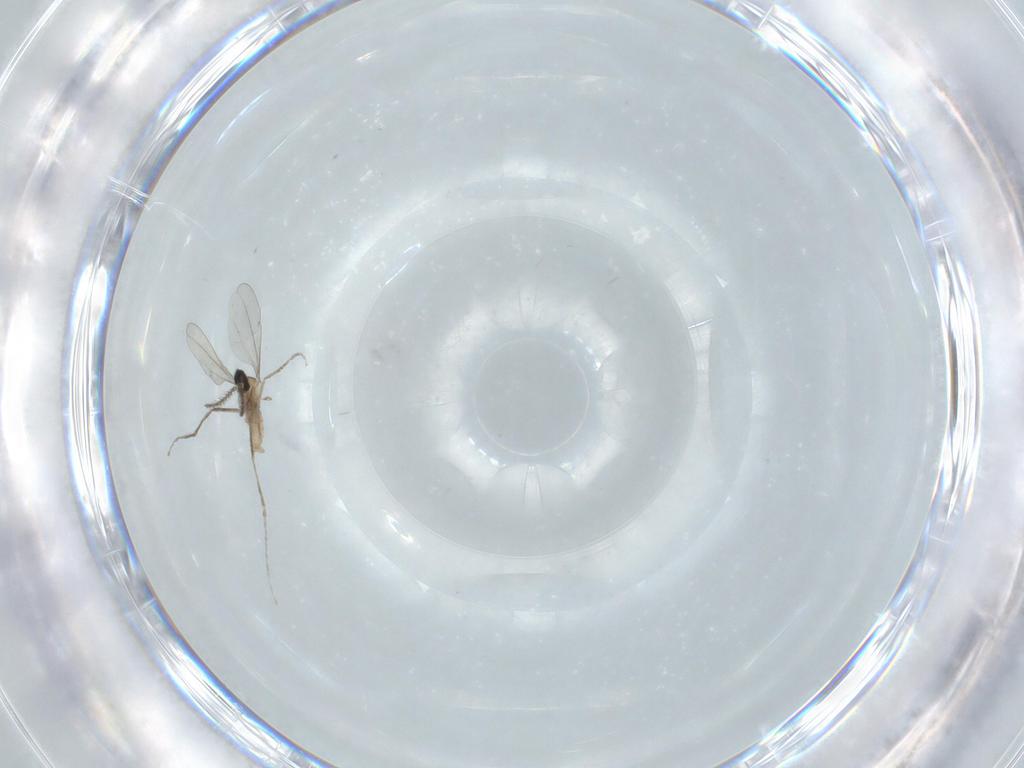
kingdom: Animalia
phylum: Arthropoda
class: Insecta
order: Diptera
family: Cecidomyiidae
